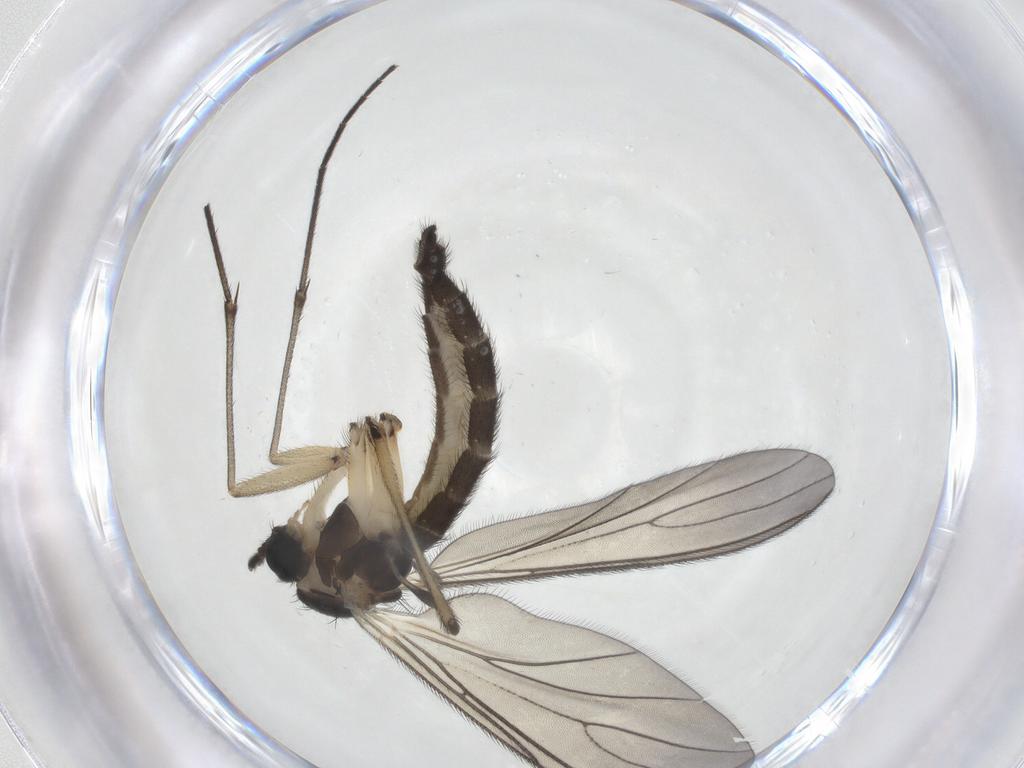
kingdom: Animalia
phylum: Arthropoda
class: Insecta
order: Diptera
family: Sciaridae
